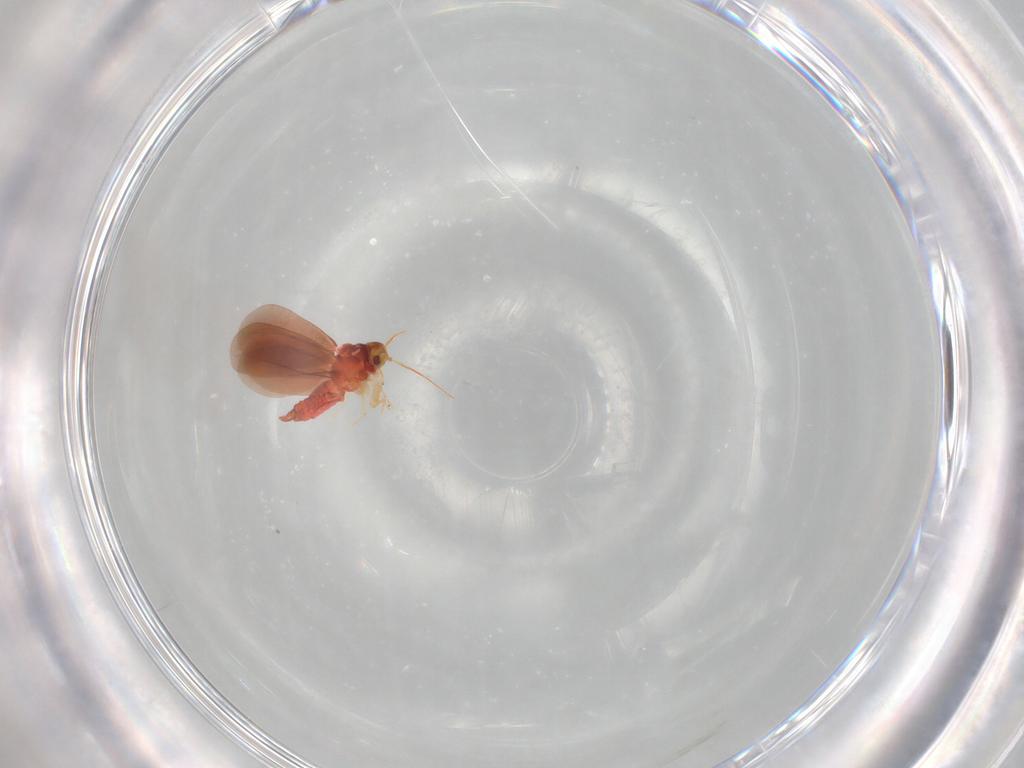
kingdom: Animalia
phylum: Arthropoda
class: Insecta
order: Hemiptera
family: Aleyrodidae
